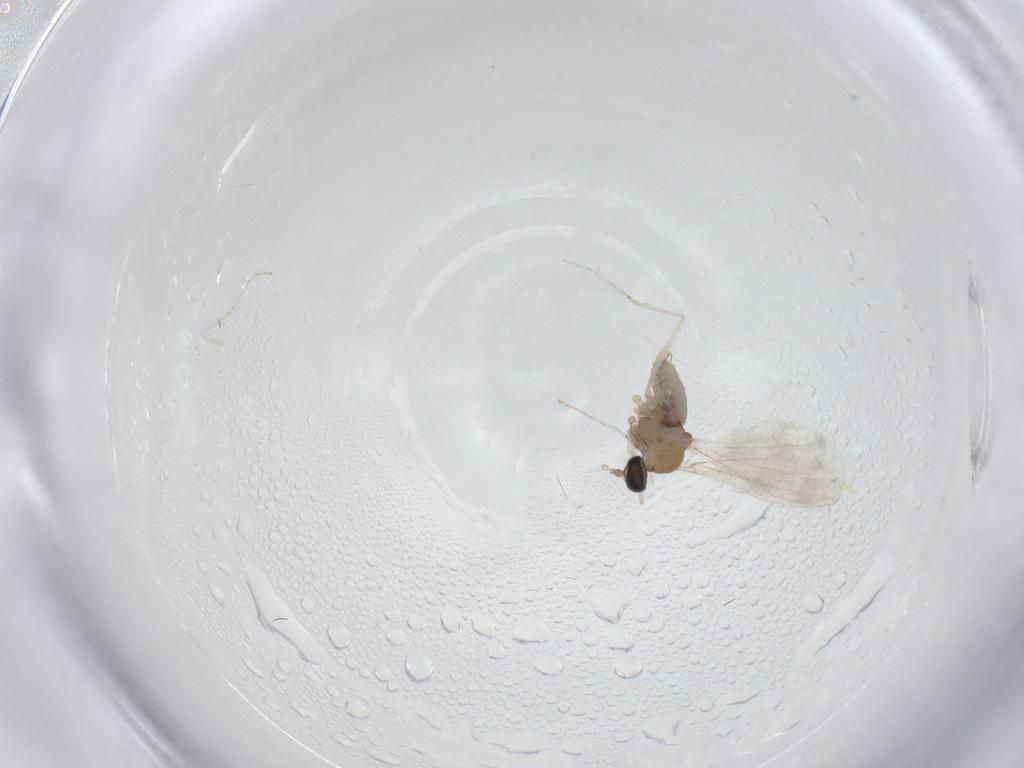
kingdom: Animalia
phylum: Arthropoda
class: Insecta
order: Diptera
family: Cecidomyiidae
